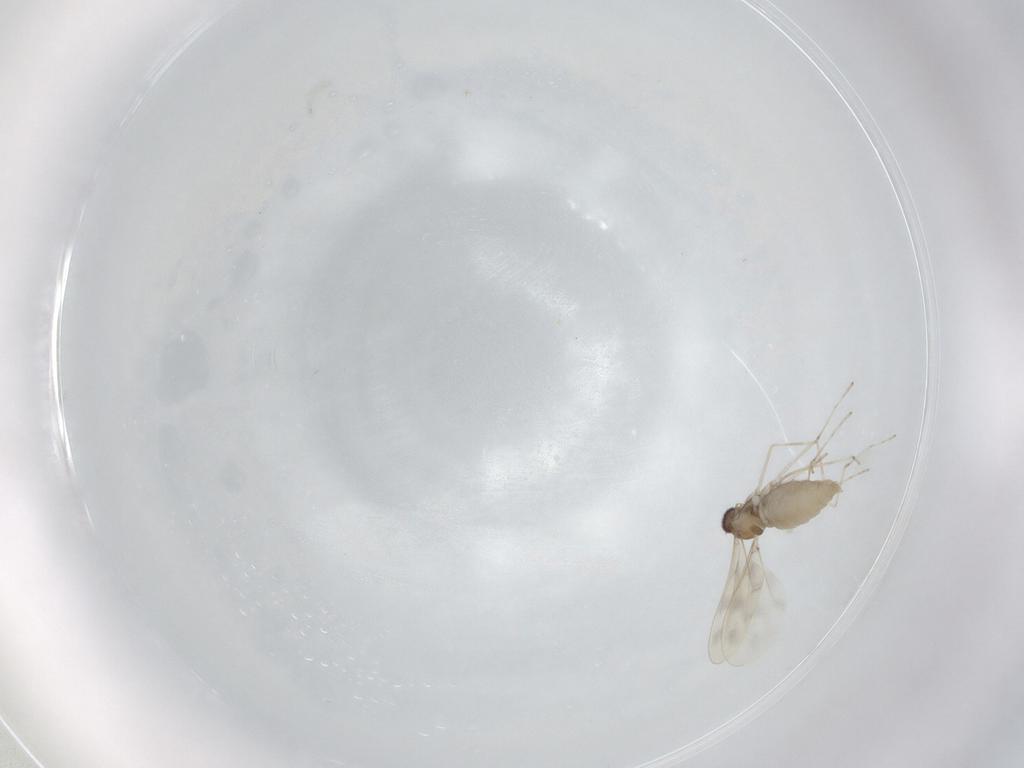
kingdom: Animalia
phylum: Arthropoda
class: Insecta
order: Diptera
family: Cecidomyiidae
